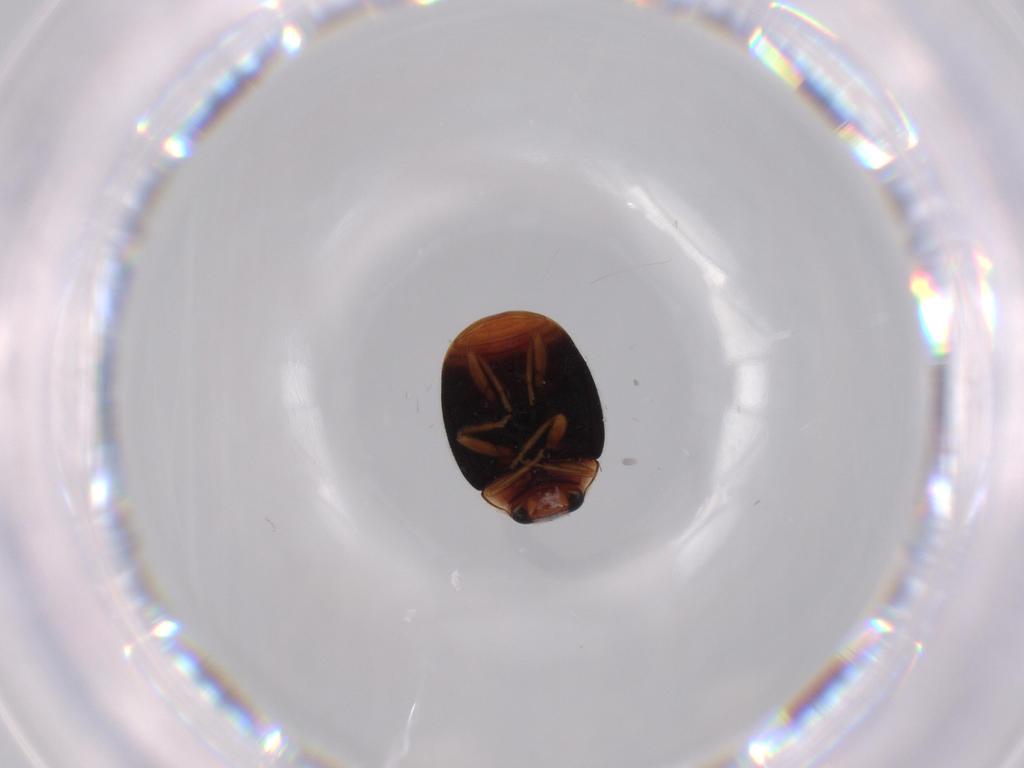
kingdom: Animalia
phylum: Arthropoda
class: Insecta
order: Coleoptera
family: Coccinellidae
